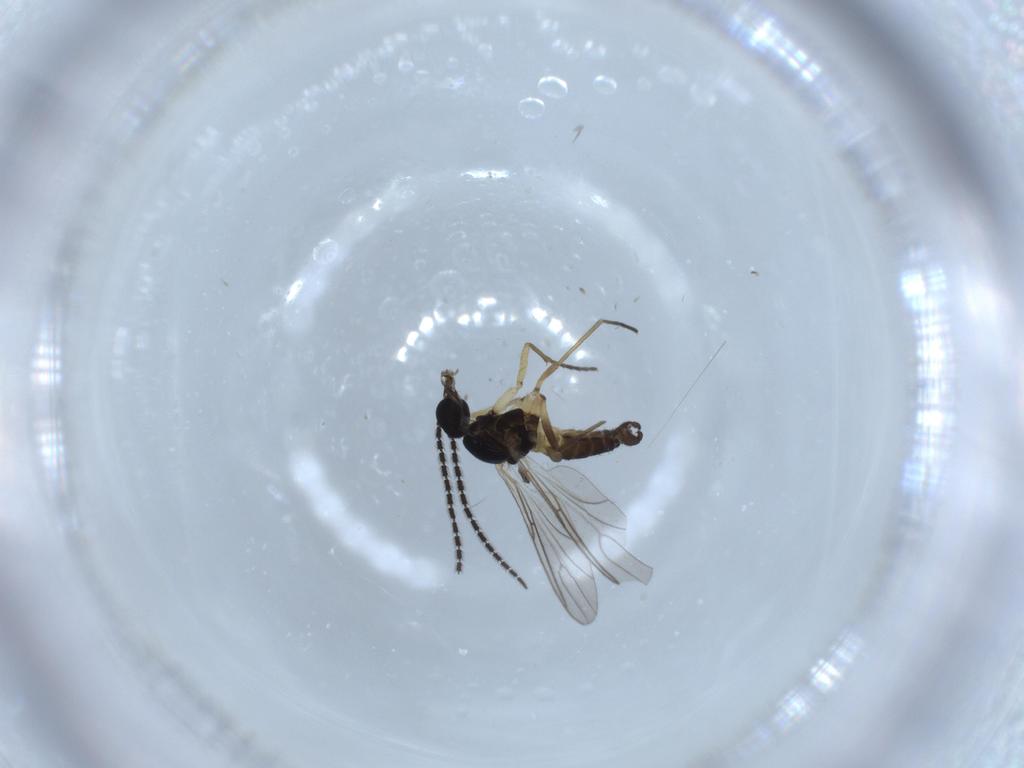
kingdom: Animalia
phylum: Arthropoda
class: Insecta
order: Diptera
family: Sciaridae
